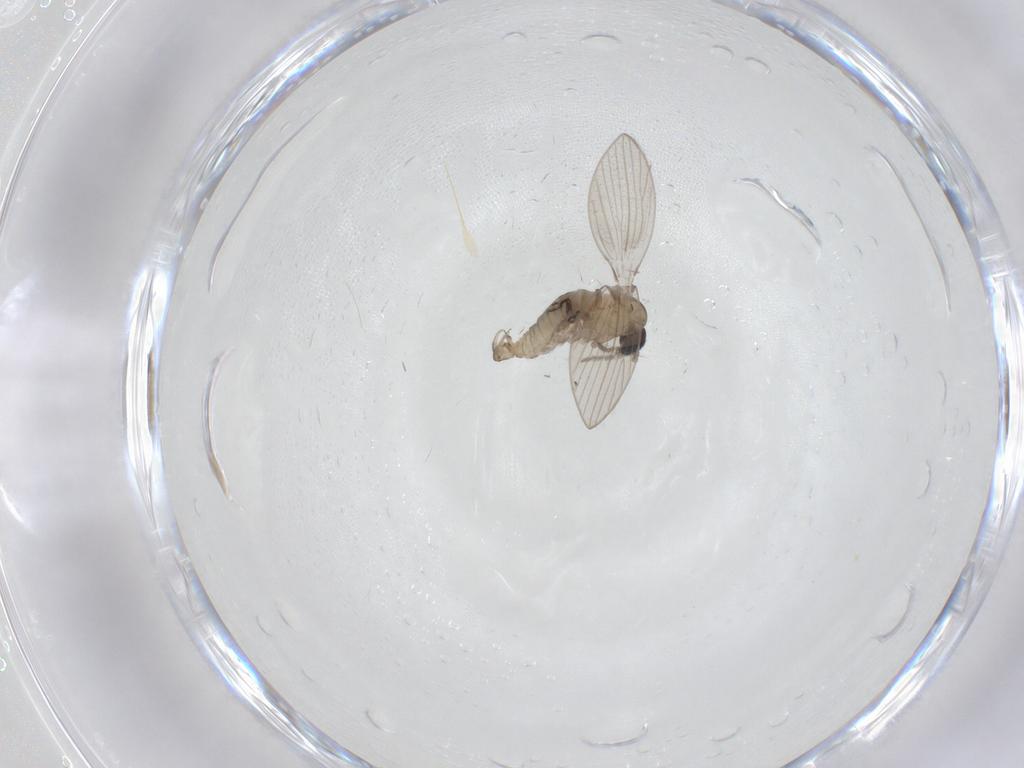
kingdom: Animalia
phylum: Arthropoda
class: Insecta
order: Diptera
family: Psychodidae
